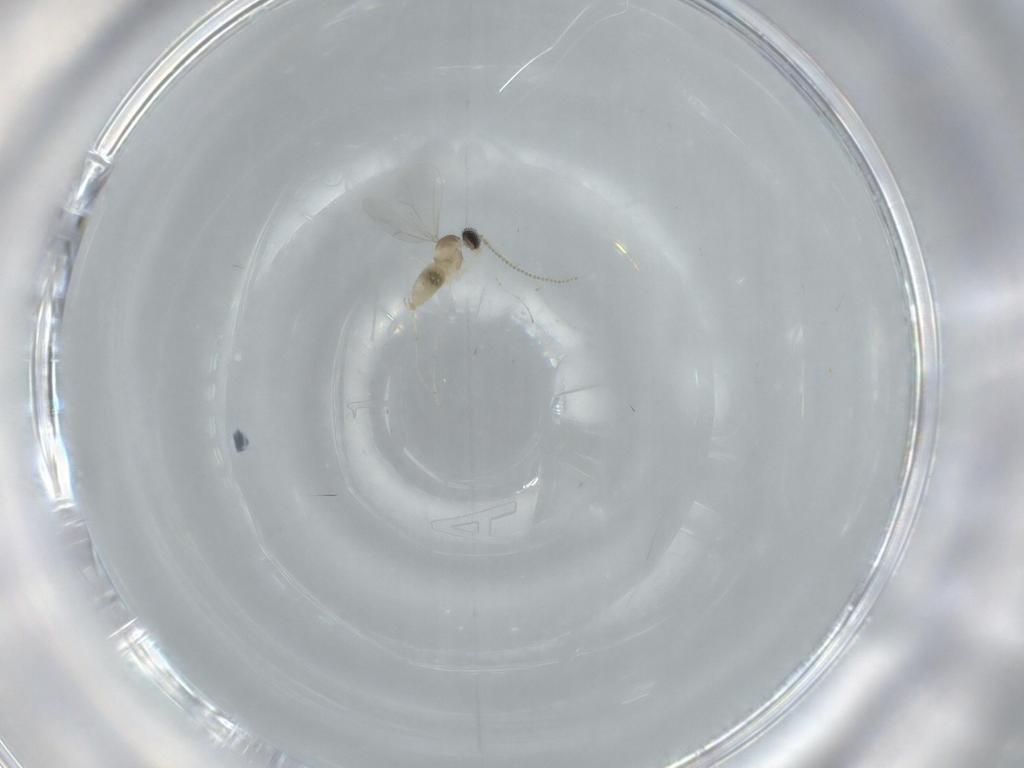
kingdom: Animalia
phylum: Arthropoda
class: Insecta
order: Diptera
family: Cecidomyiidae
